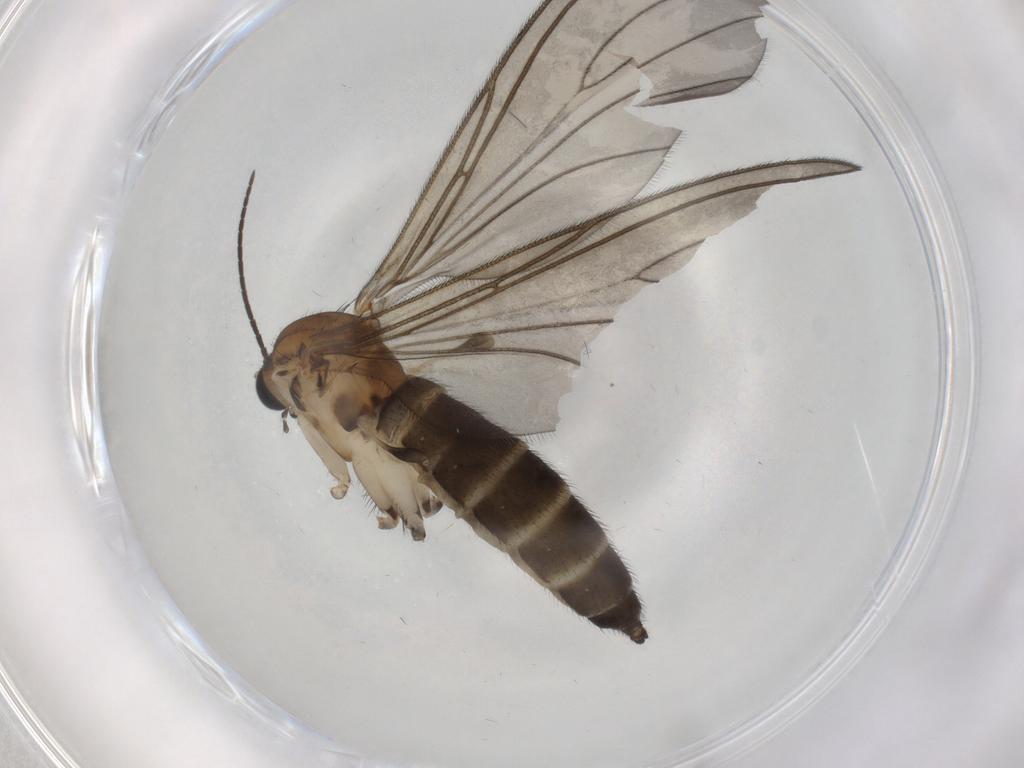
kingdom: Animalia
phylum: Arthropoda
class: Insecta
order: Diptera
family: Sciaridae
